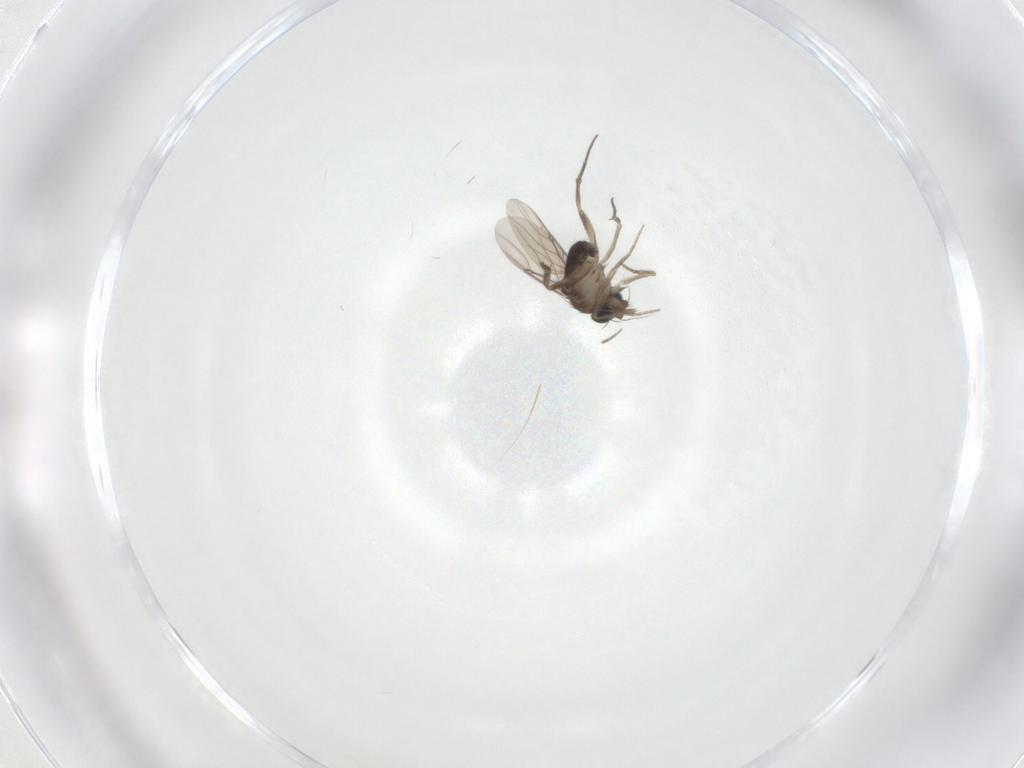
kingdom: Animalia
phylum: Arthropoda
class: Insecta
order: Diptera
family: Phoridae
